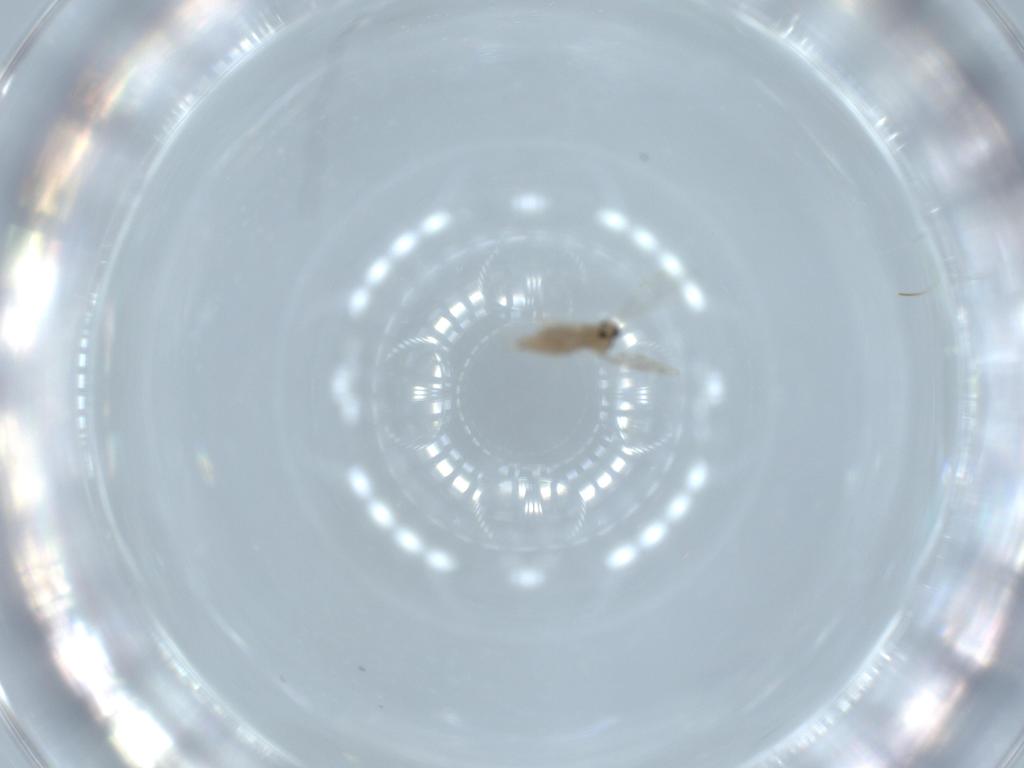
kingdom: Animalia
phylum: Arthropoda
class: Insecta
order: Diptera
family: Cecidomyiidae
